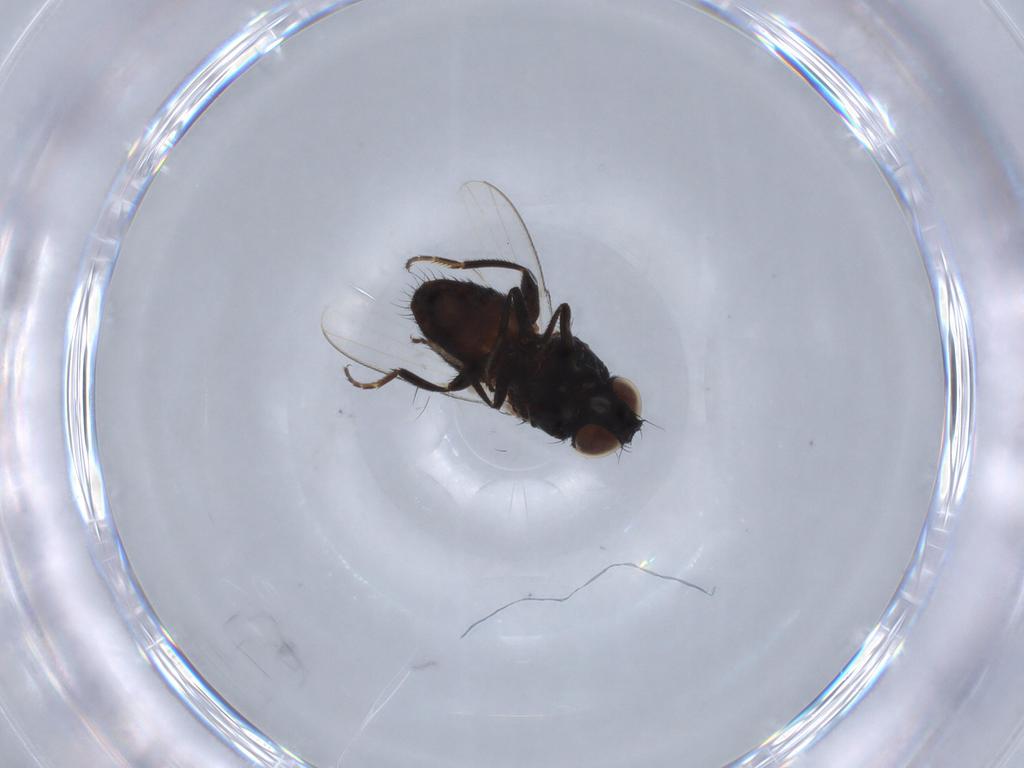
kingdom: Animalia
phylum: Arthropoda
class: Insecta
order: Diptera
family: Milichiidae
